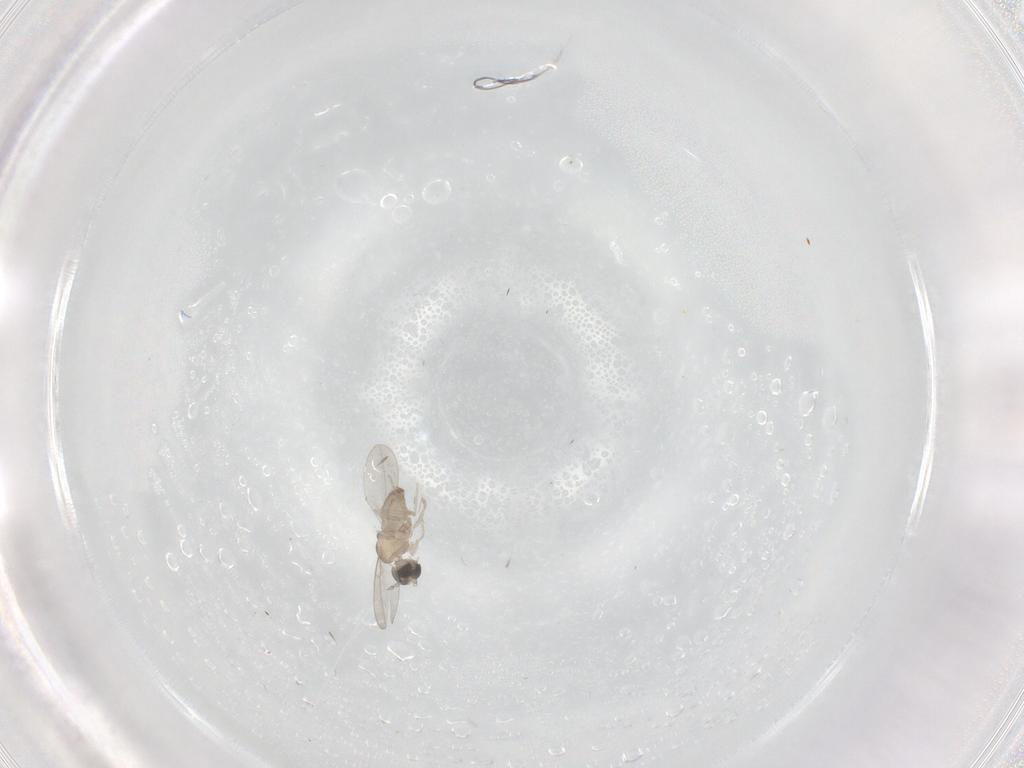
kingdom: Animalia
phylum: Arthropoda
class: Insecta
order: Diptera
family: Cecidomyiidae
